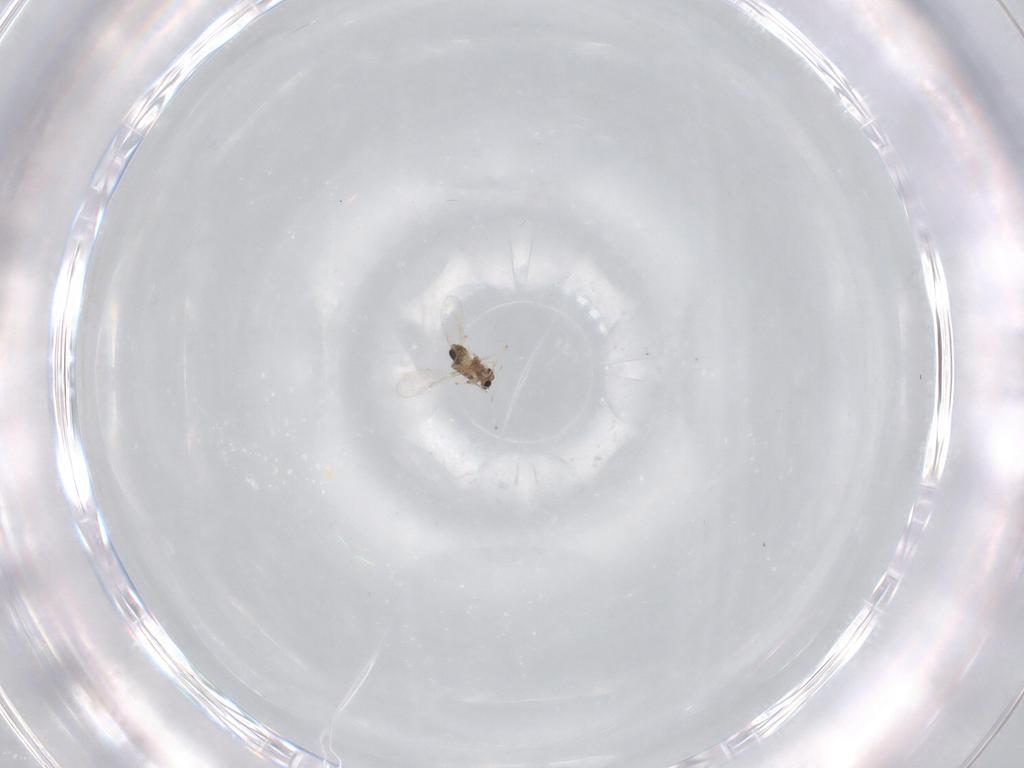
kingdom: Animalia
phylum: Arthropoda
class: Insecta
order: Diptera
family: Chironomidae
